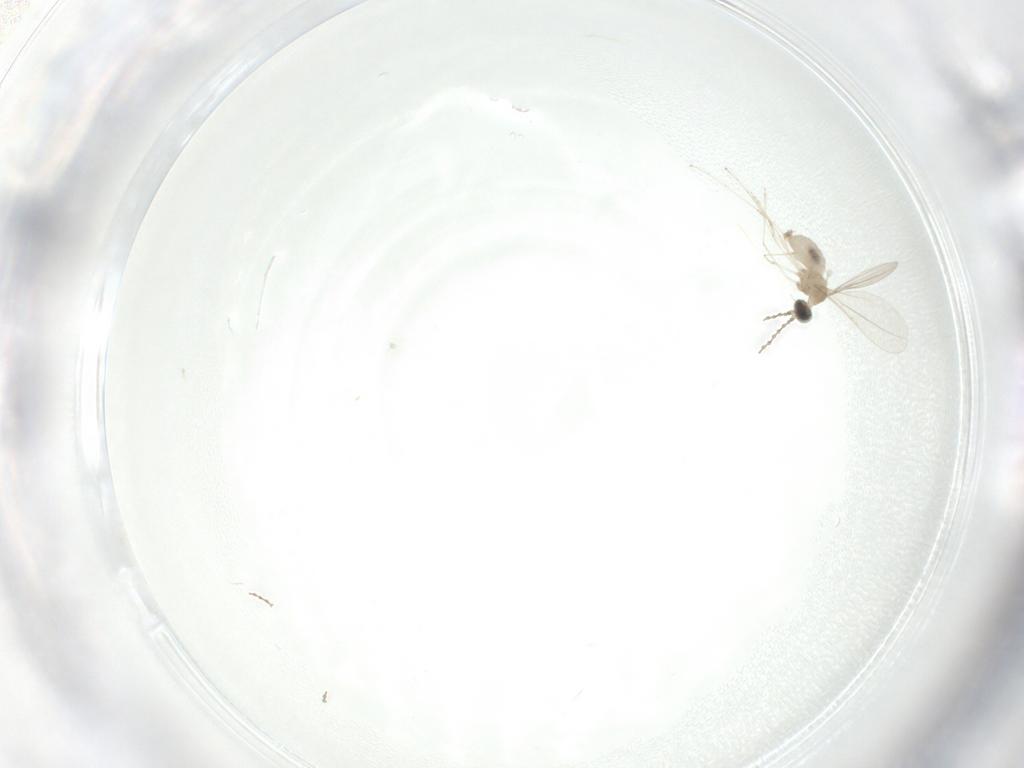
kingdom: Animalia
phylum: Arthropoda
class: Insecta
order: Diptera
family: Cecidomyiidae
